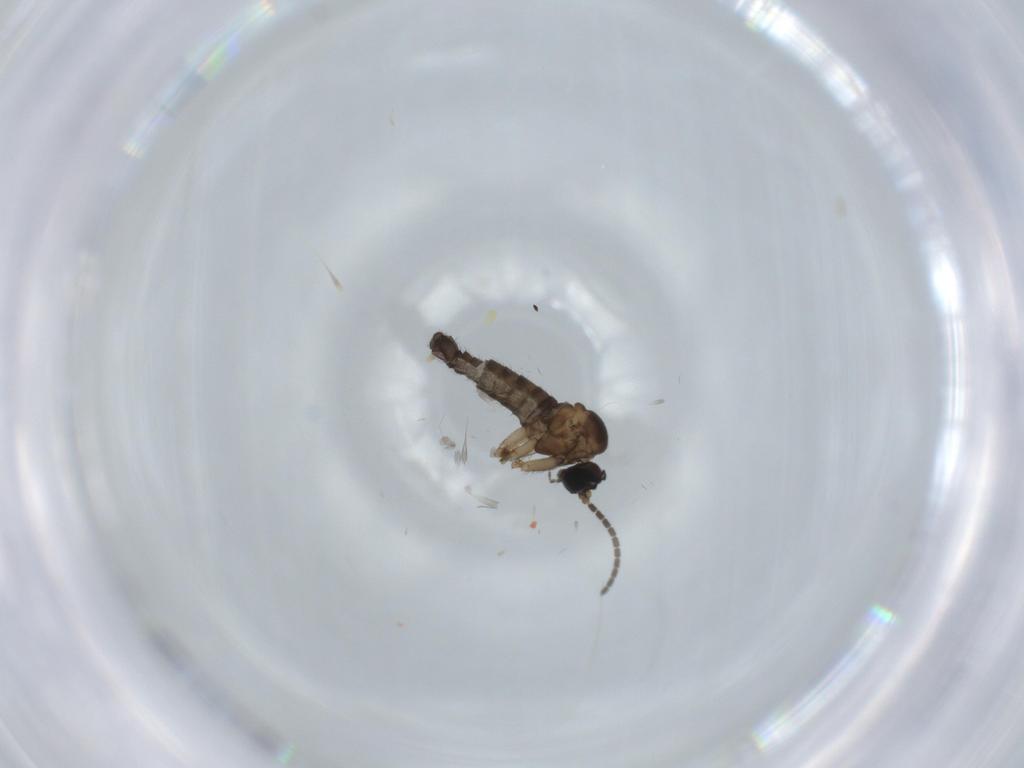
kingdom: Animalia
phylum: Arthropoda
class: Insecta
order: Diptera
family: Sciaridae
